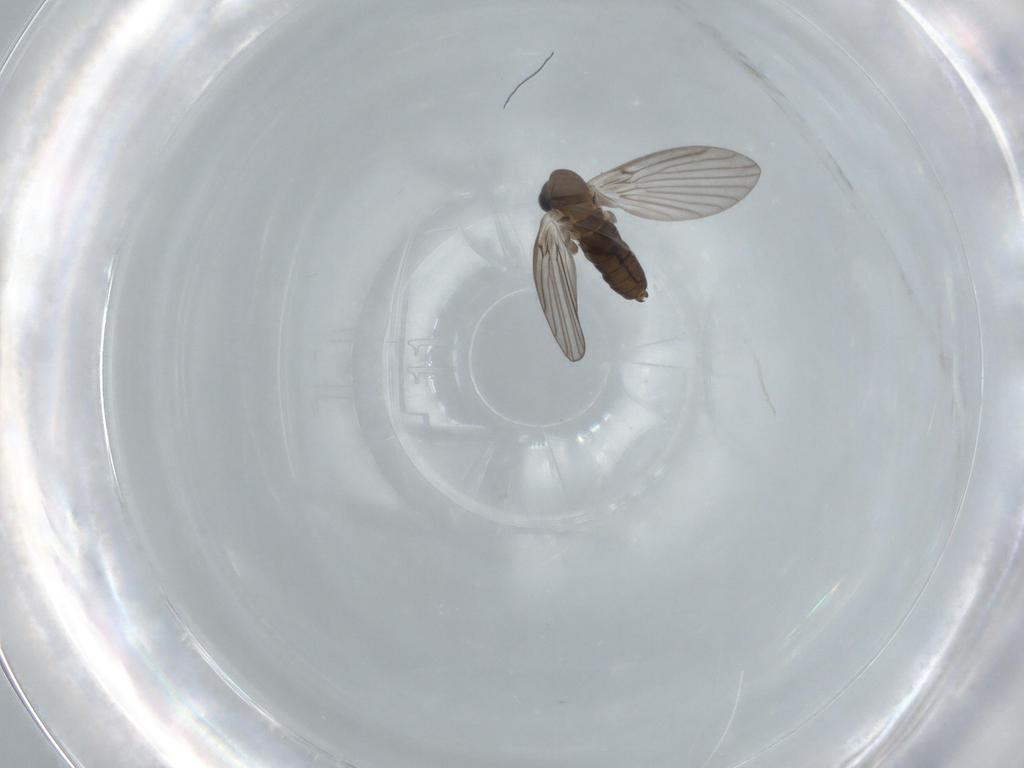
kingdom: Animalia
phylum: Arthropoda
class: Insecta
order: Diptera
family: Psychodidae
